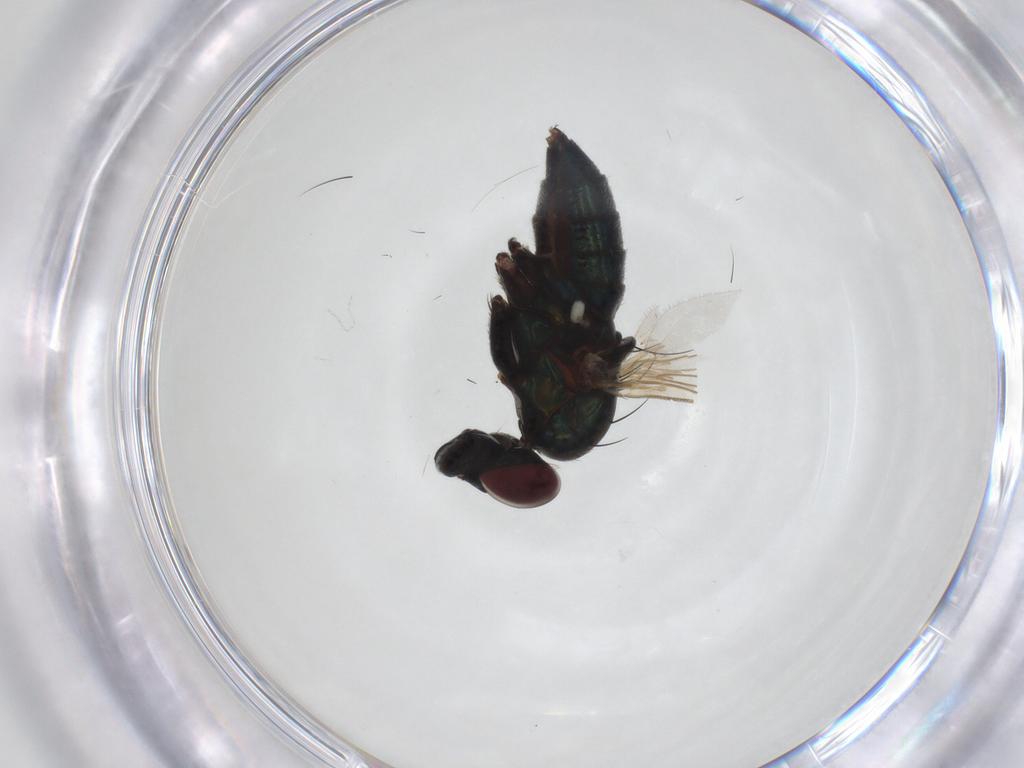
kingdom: Animalia
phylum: Arthropoda
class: Insecta
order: Diptera
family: Dolichopodidae
